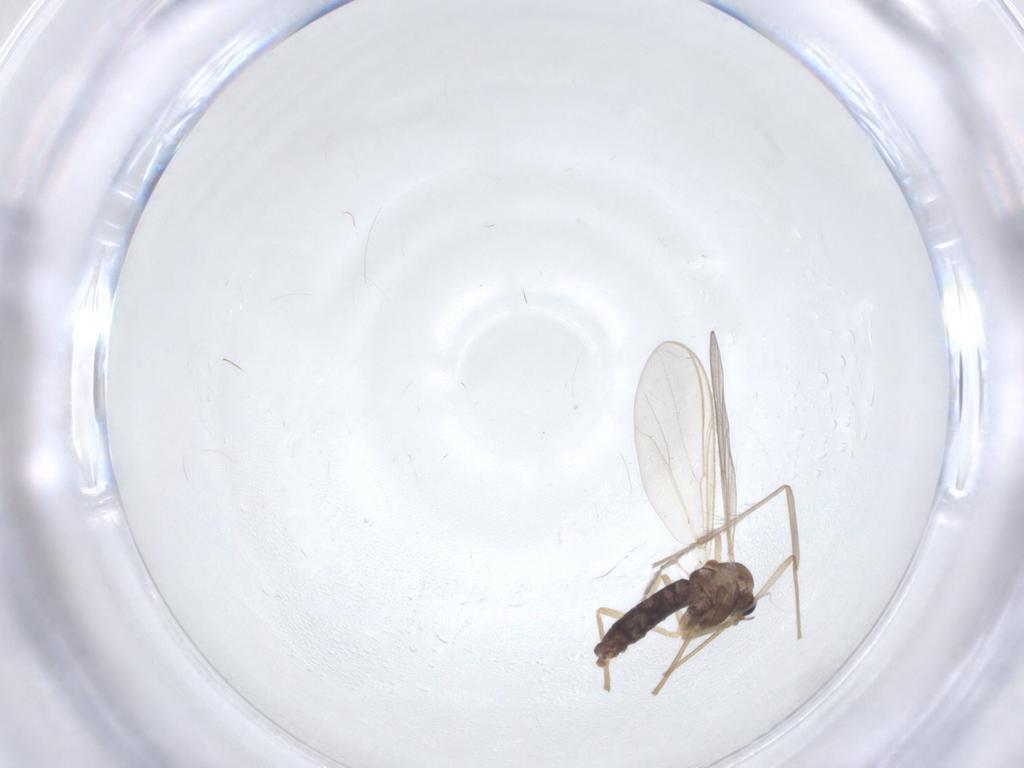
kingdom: Animalia
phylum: Arthropoda
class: Insecta
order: Diptera
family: Chironomidae
